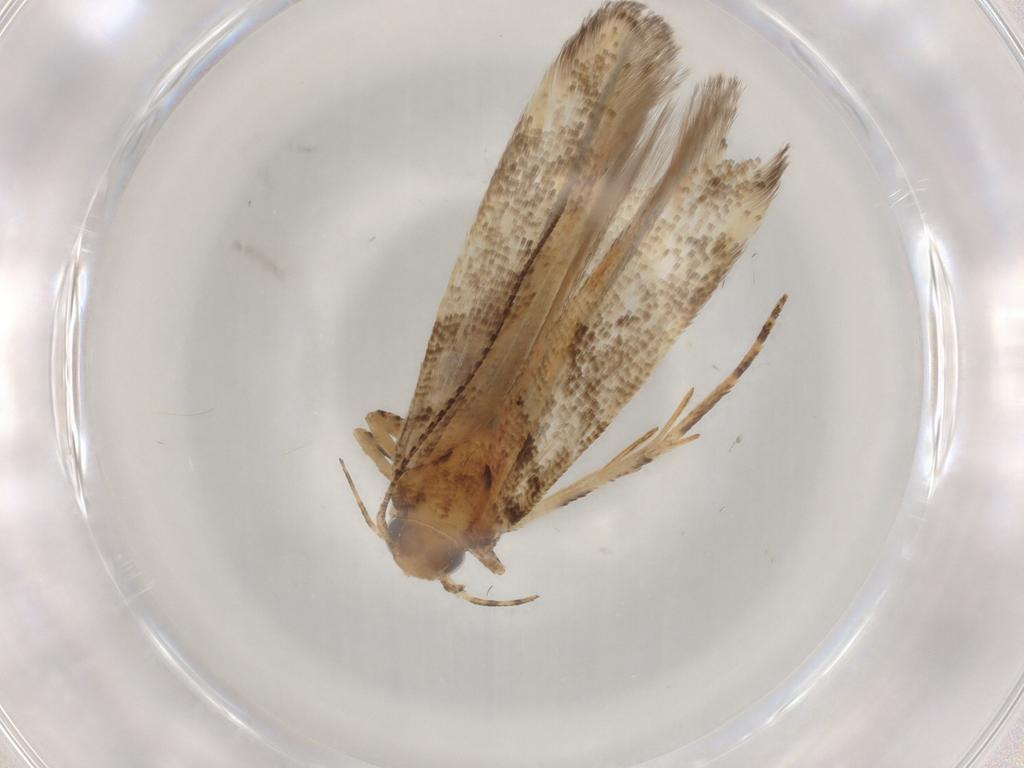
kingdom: Animalia
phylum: Arthropoda
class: Insecta
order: Lepidoptera
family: Gelechiidae
